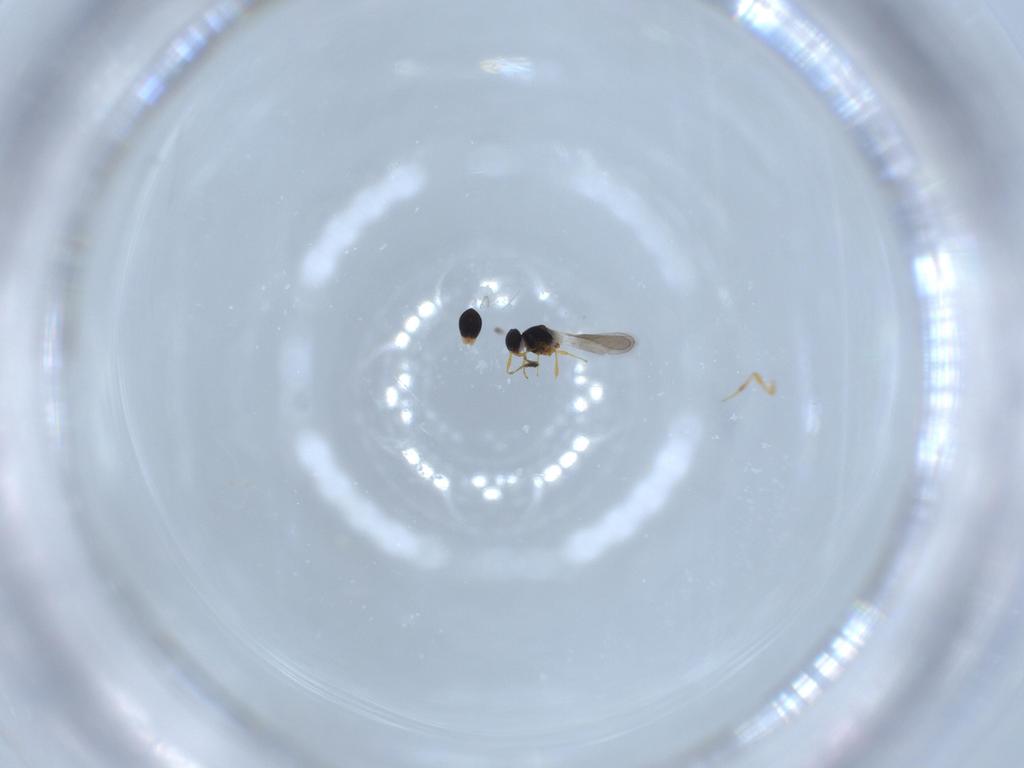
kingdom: Animalia
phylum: Arthropoda
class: Insecta
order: Hymenoptera
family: Platygastridae
